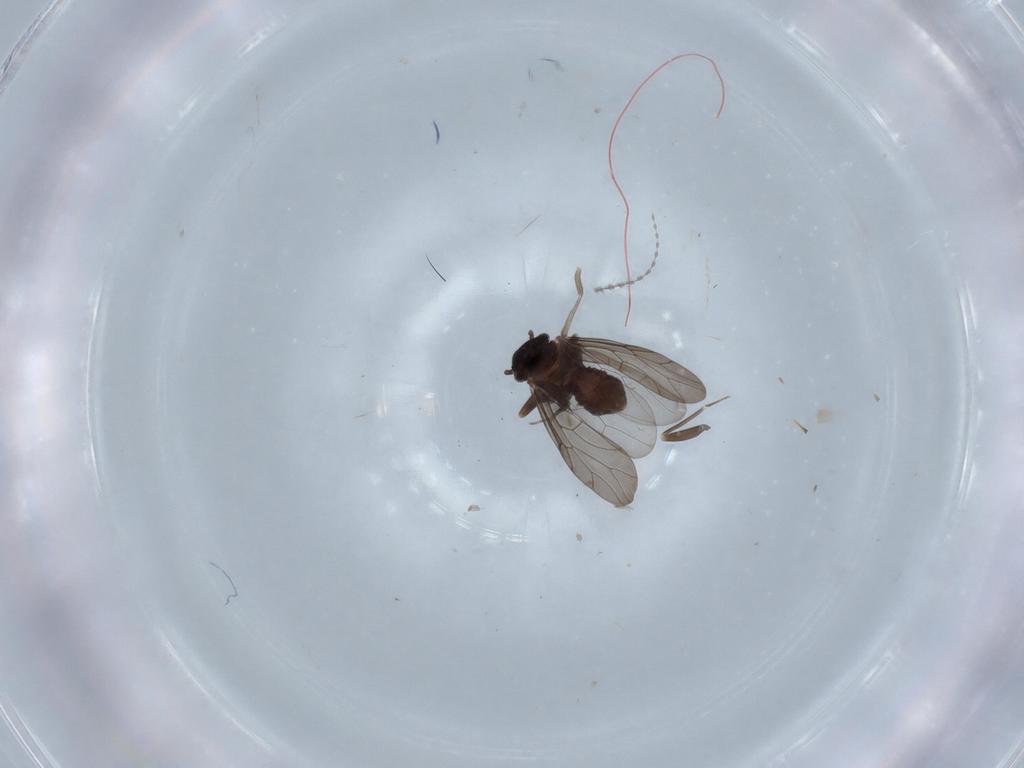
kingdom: Animalia
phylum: Arthropoda
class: Insecta
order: Psocodea
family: Lepidopsocidae
